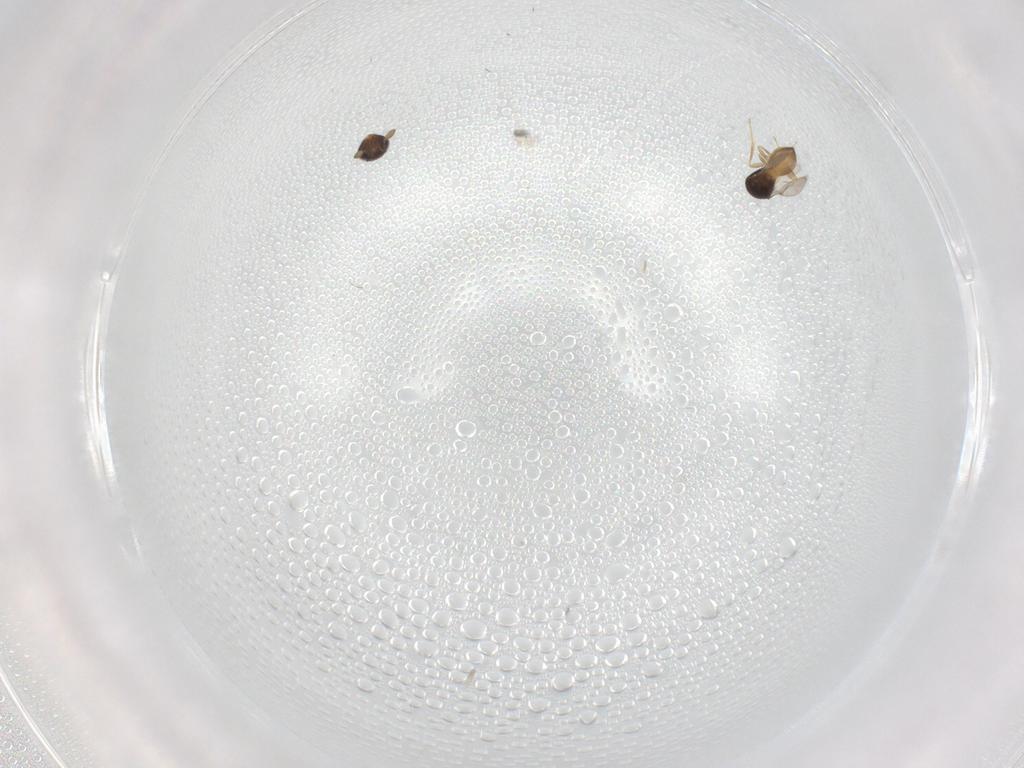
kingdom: Animalia
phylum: Arthropoda
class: Insecta
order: Hymenoptera
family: Scelionidae
